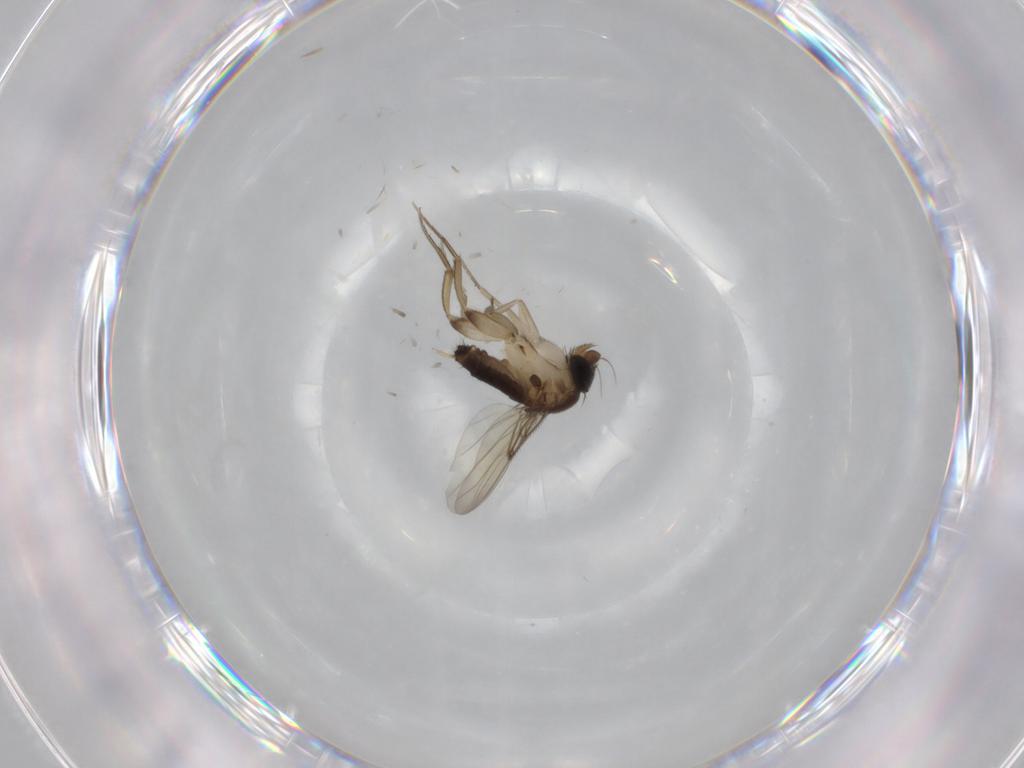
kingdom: Animalia
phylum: Arthropoda
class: Insecta
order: Diptera
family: Phoridae
